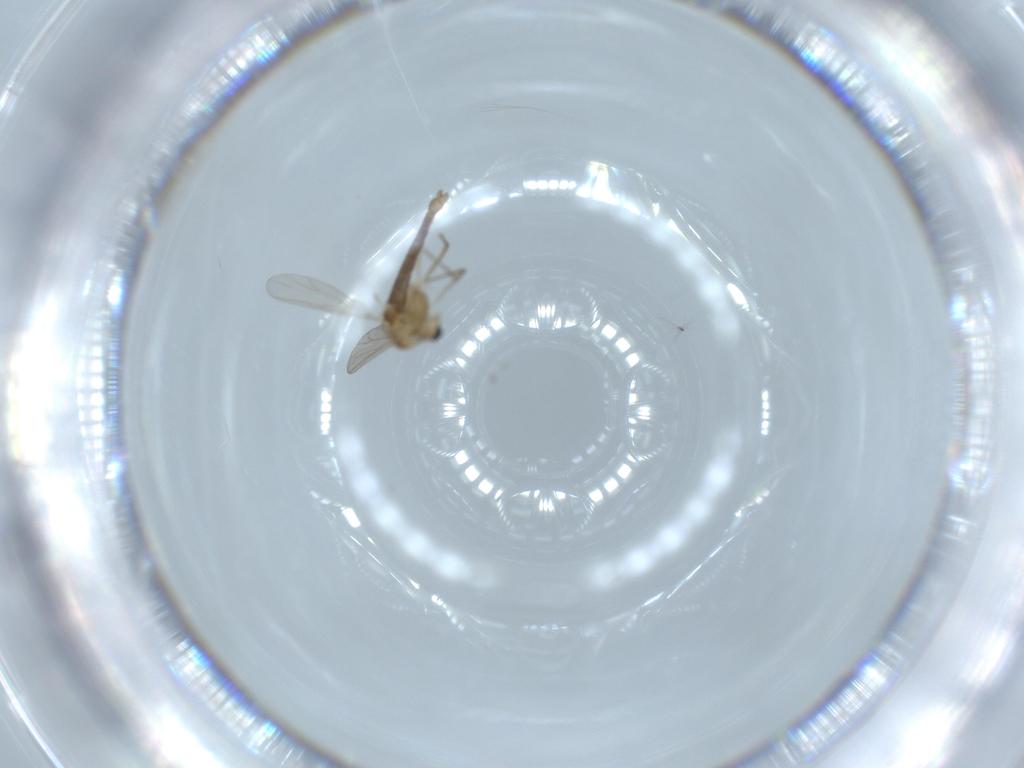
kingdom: Animalia
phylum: Arthropoda
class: Insecta
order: Diptera
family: Chironomidae
